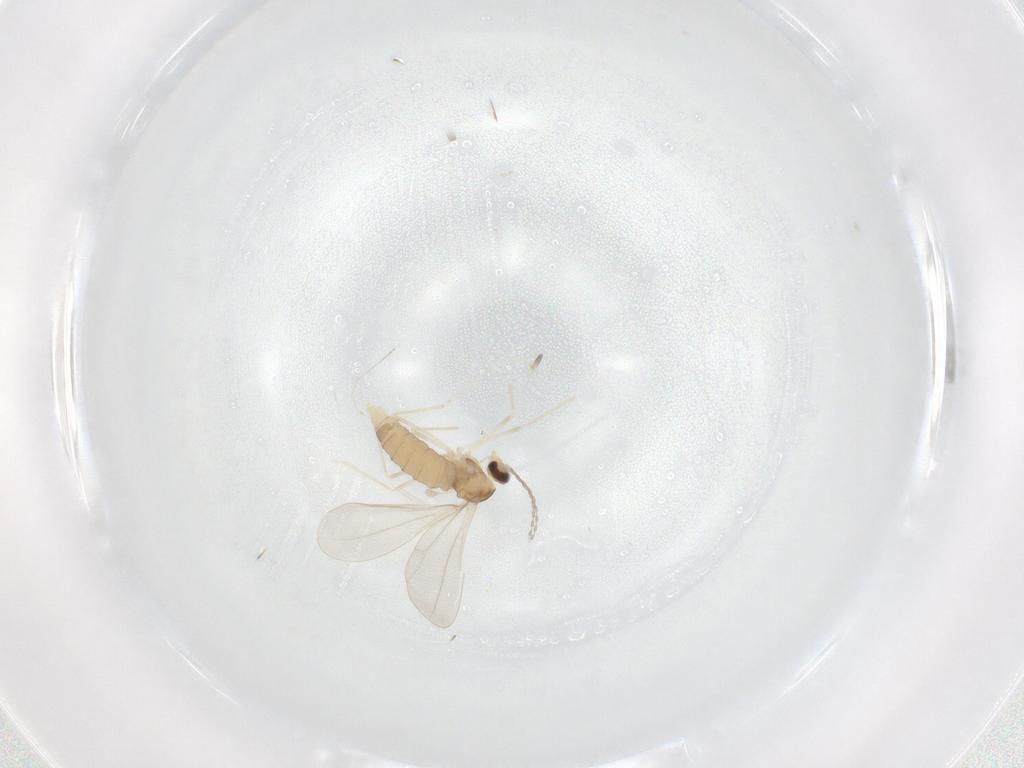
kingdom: Animalia
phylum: Arthropoda
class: Insecta
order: Diptera
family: Cecidomyiidae
